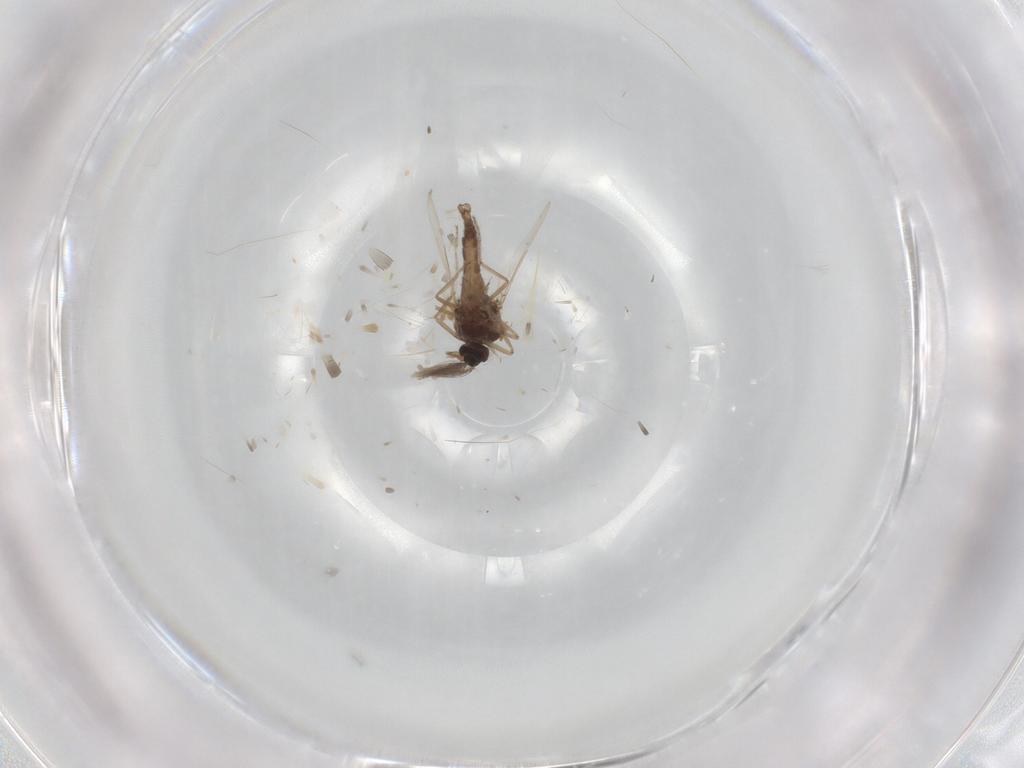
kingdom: Animalia
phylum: Arthropoda
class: Insecta
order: Diptera
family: Ceratopogonidae
